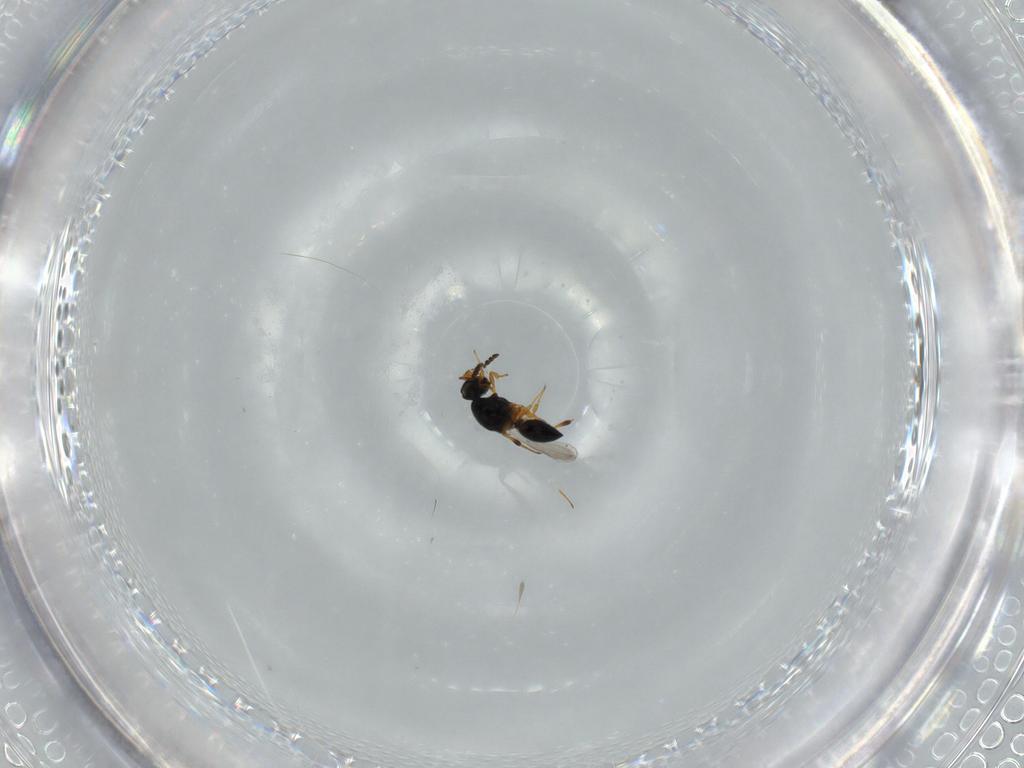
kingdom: Animalia
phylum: Arthropoda
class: Insecta
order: Hymenoptera
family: Platygastridae
